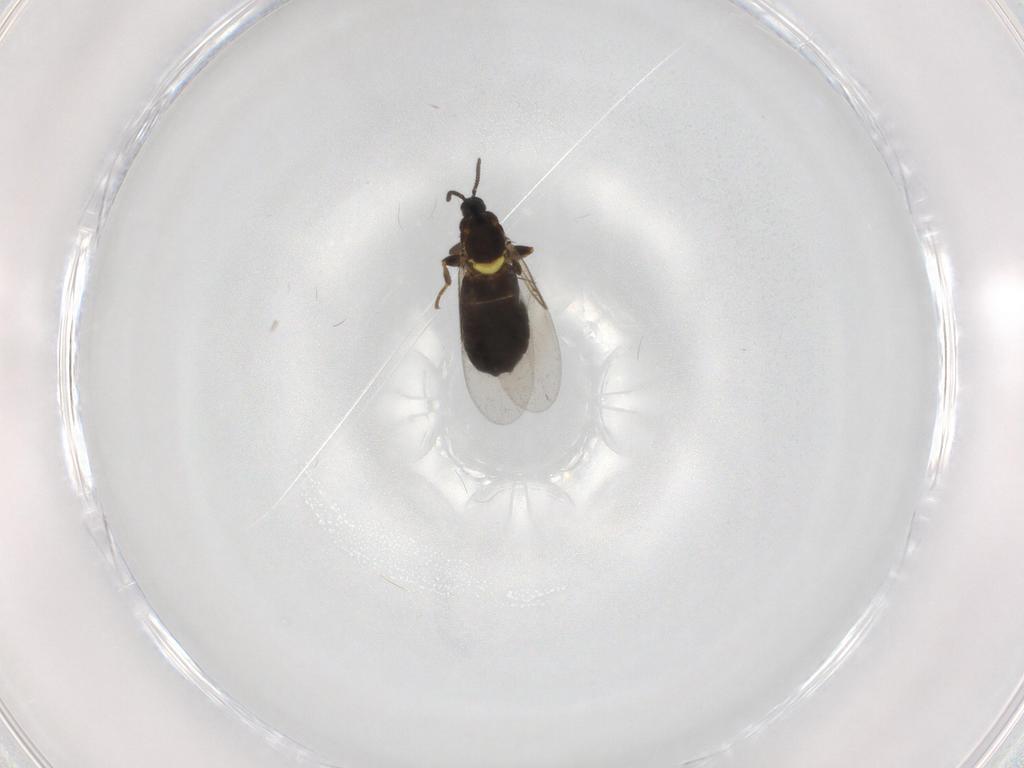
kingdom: Animalia
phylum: Arthropoda
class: Insecta
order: Diptera
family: Scatopsidae
